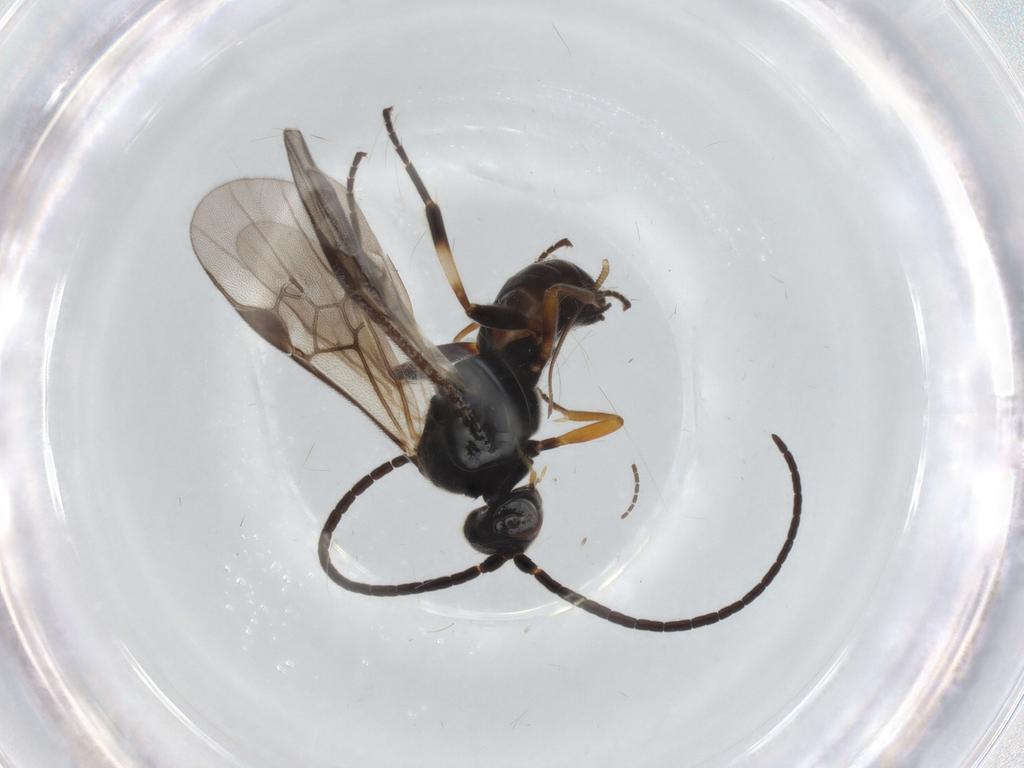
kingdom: Animalia
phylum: Arthropoda
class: Insecta
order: Hymenoptera
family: Braconidae
